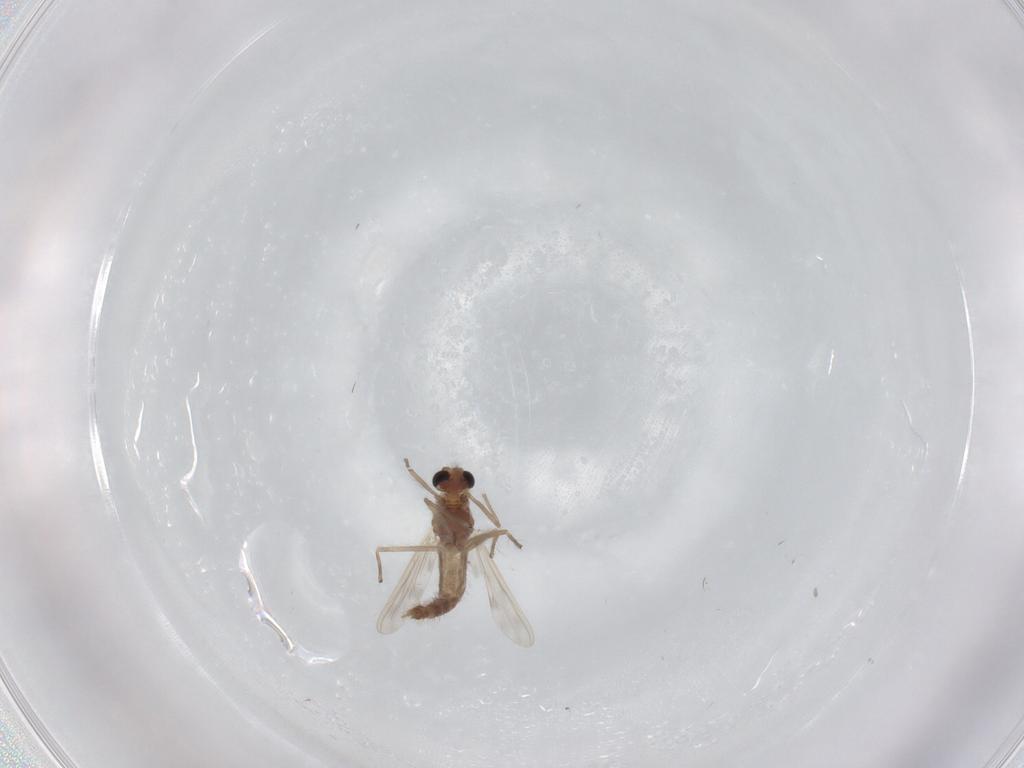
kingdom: Animalia
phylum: Arthropoda
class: Insecta
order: Diptera
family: Cecidomyiidae
